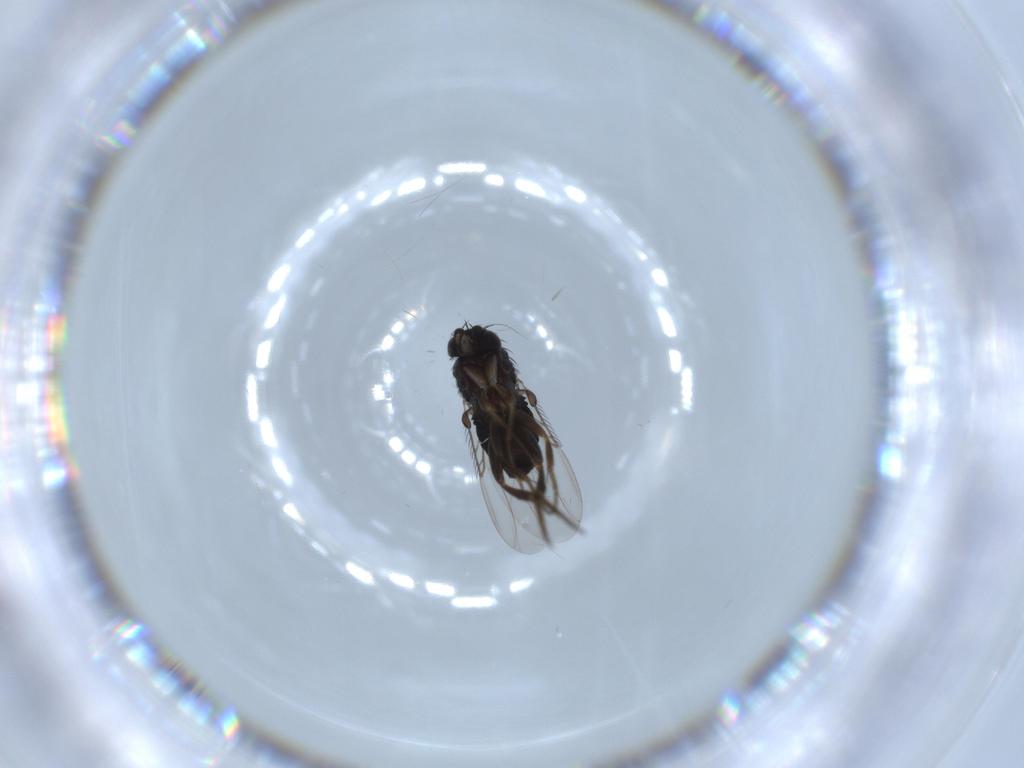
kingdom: Animalia
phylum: Arthropoda
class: Insecta
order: Diptera
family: Phoridae
